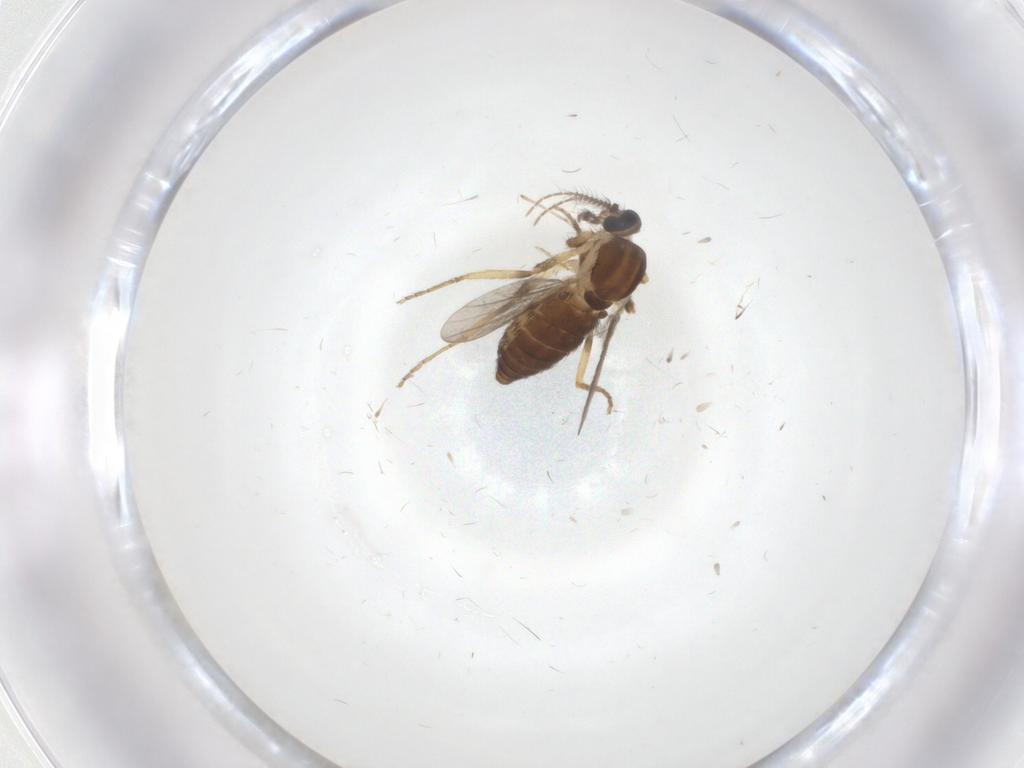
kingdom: Animalia
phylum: Arthropoda
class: Insecta
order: Diptera
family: Ceratopogonidae
